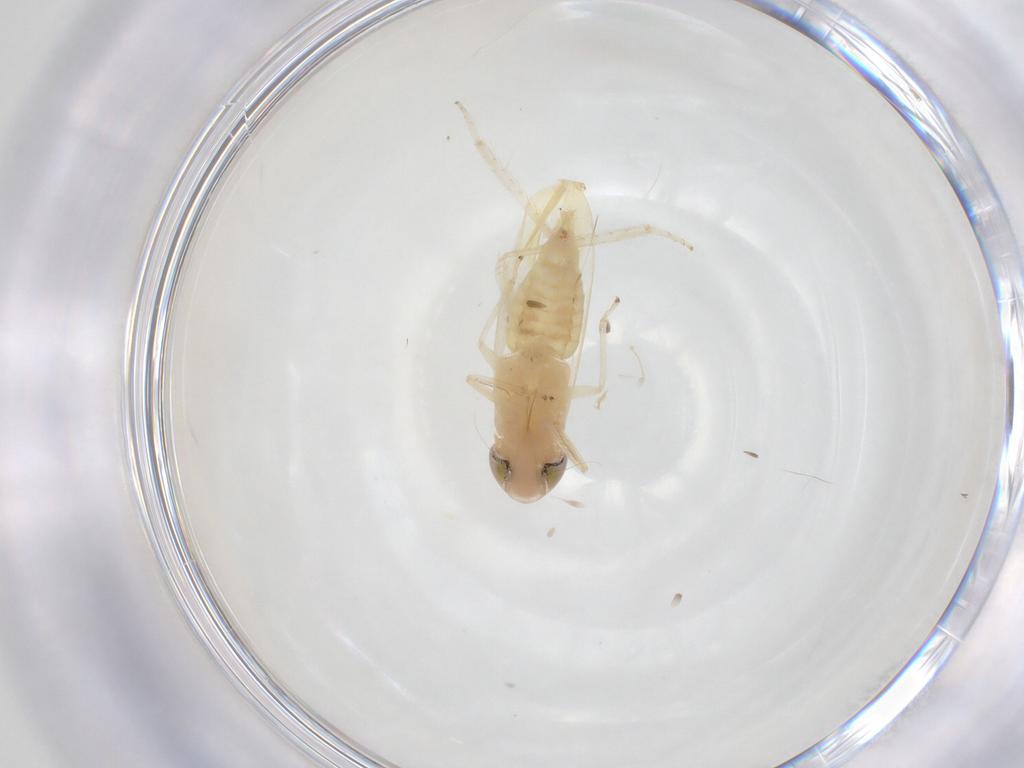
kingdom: Animalia
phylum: Arthropoda
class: Insecta
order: Hemiptera
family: Cicadellidae
